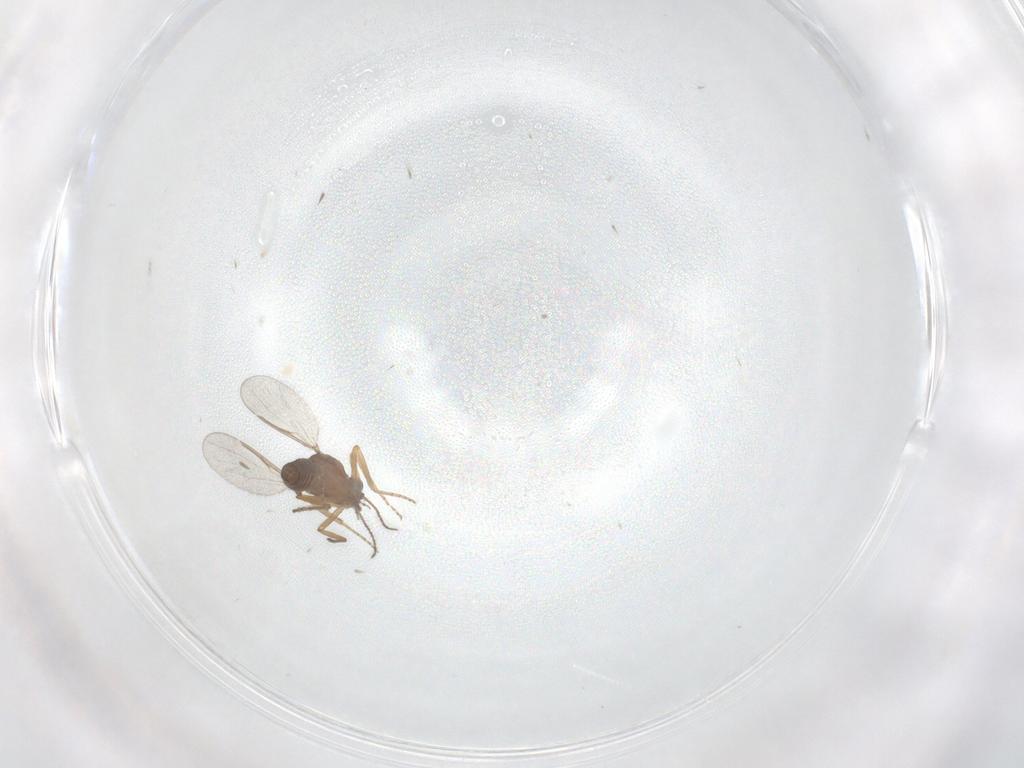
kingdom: Animalia
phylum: Arthropoda
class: Insecta
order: Diptera
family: Ceratopogonidae
